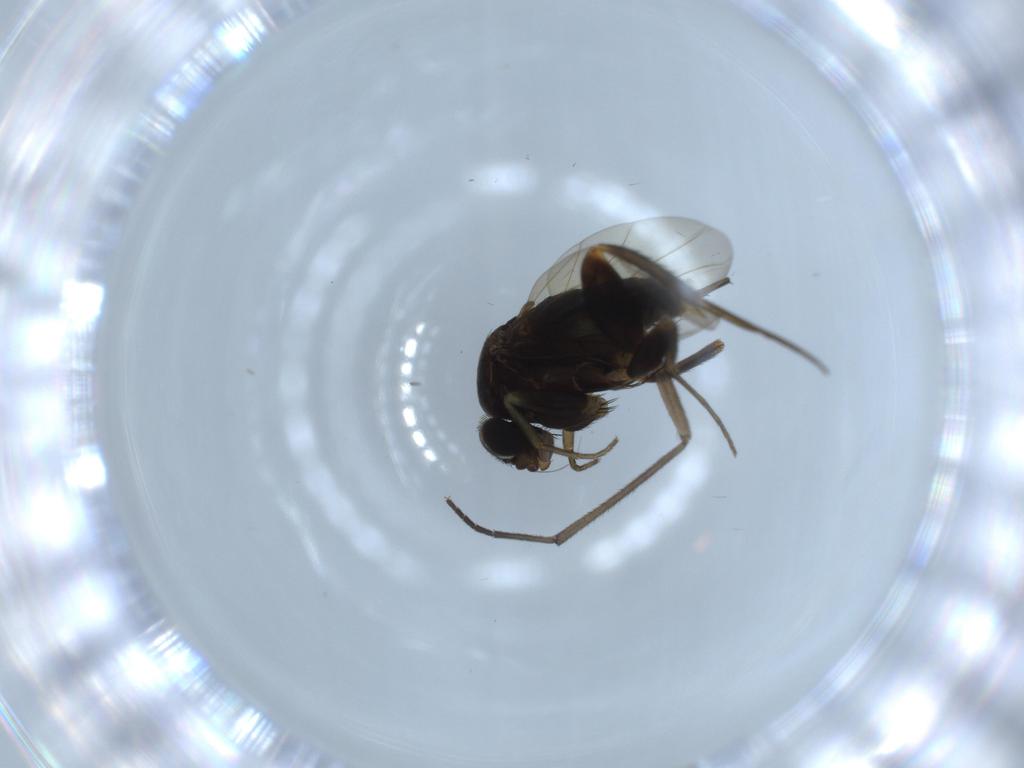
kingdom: Animalia
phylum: Arthropoda
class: Insecta
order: Diptera
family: Sciaridae
